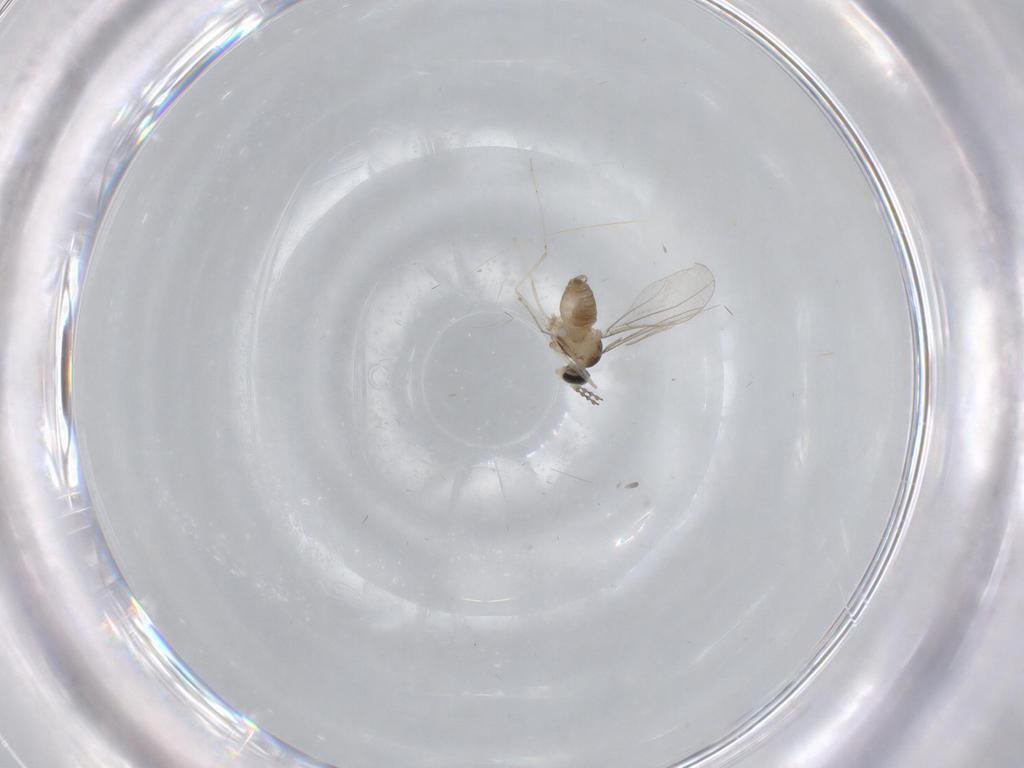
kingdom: Animalia
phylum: Arthropoda
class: Insecta
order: Diptera
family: Cecidomyiidae
